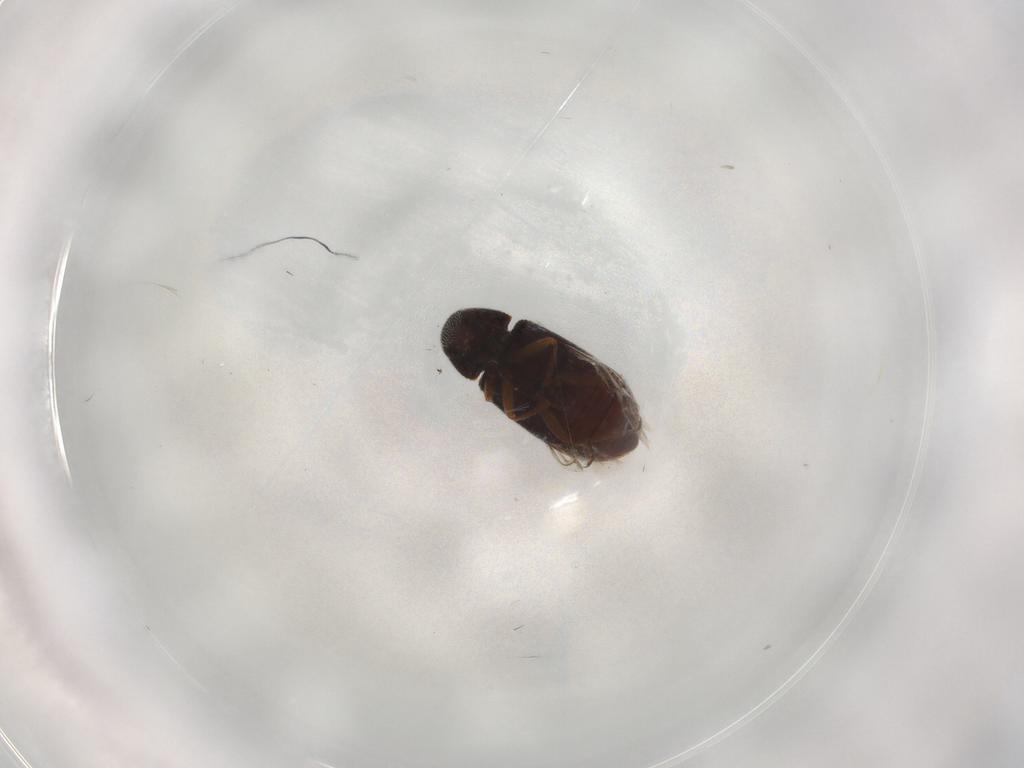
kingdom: Animalia
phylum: Arthropoda
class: Insecta
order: Coleoptera
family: Rhadalidae
